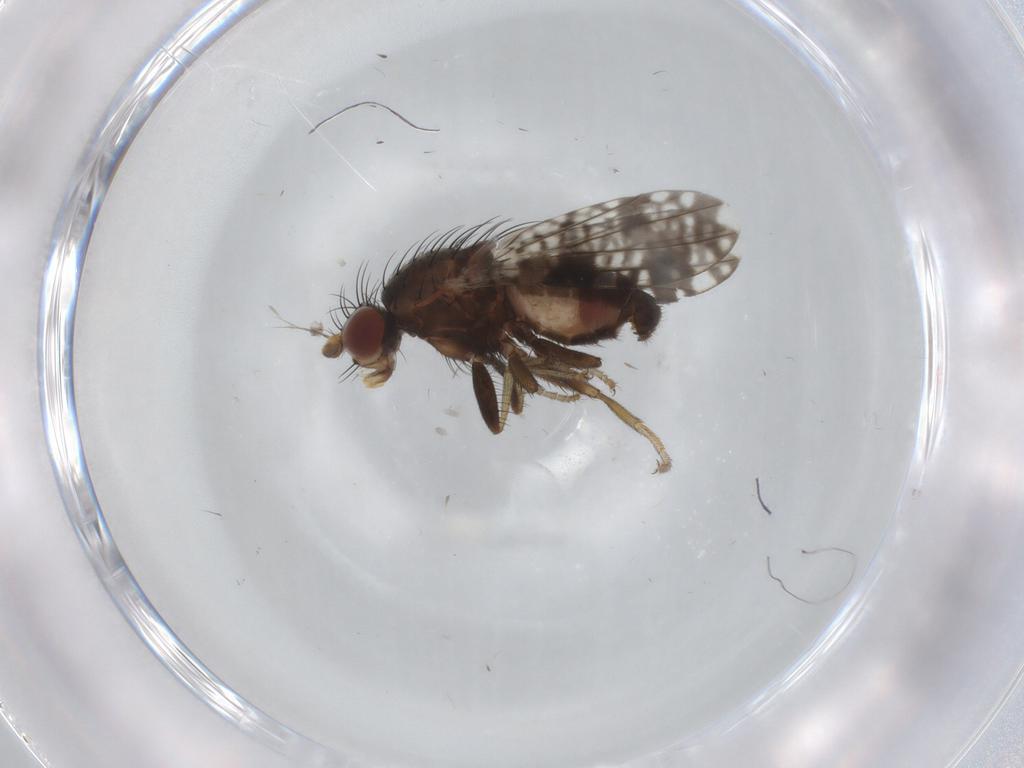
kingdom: Animalia
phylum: Arthropoda
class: Insecta
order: Diptera
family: Tephritidae
